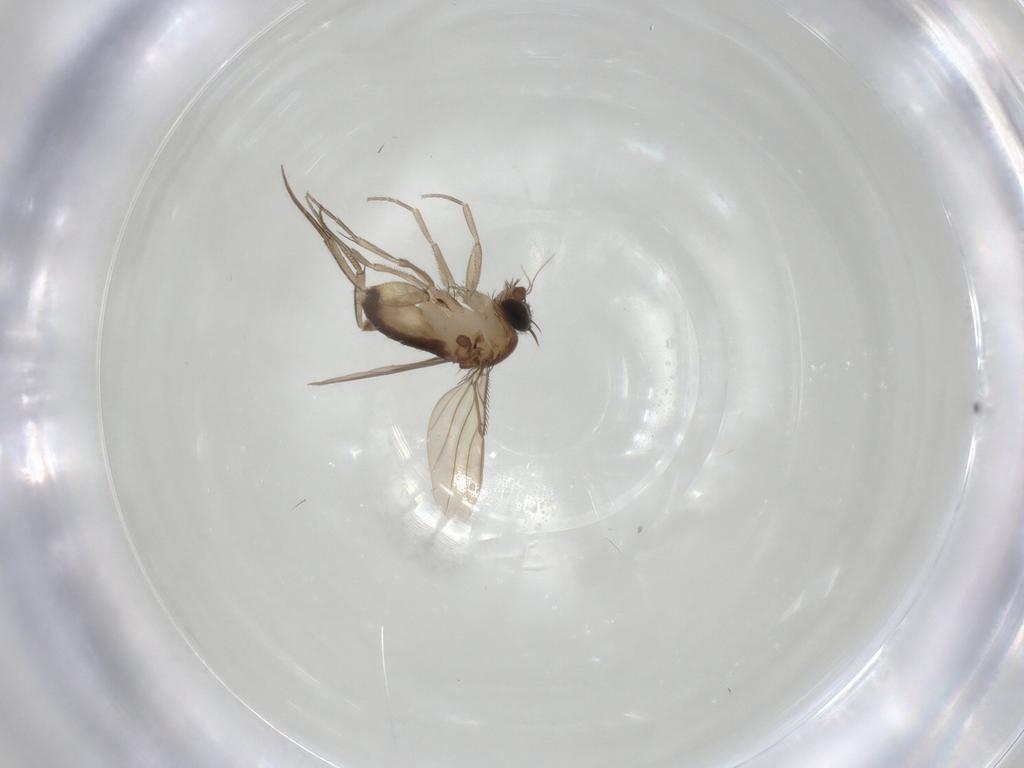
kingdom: Animalia
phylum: Arthropoda
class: Insecta
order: Diptera
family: Phoridae
